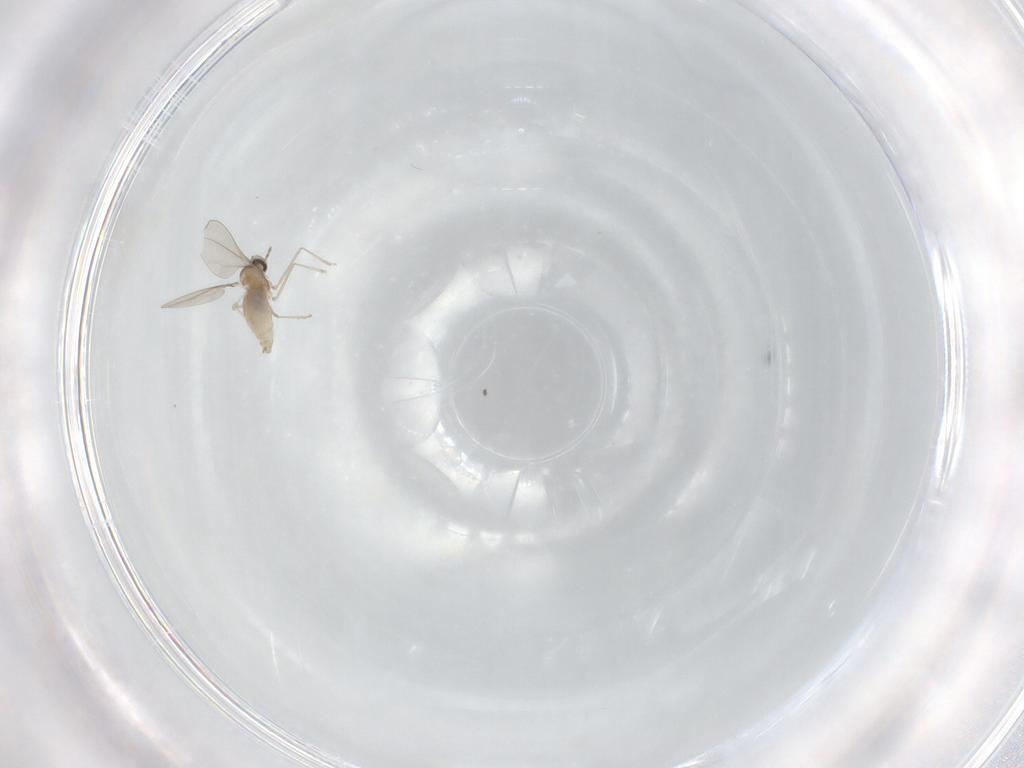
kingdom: Animalia
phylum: Arthropoda
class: Insecta
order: Diptera
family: Cecidomyiidae
